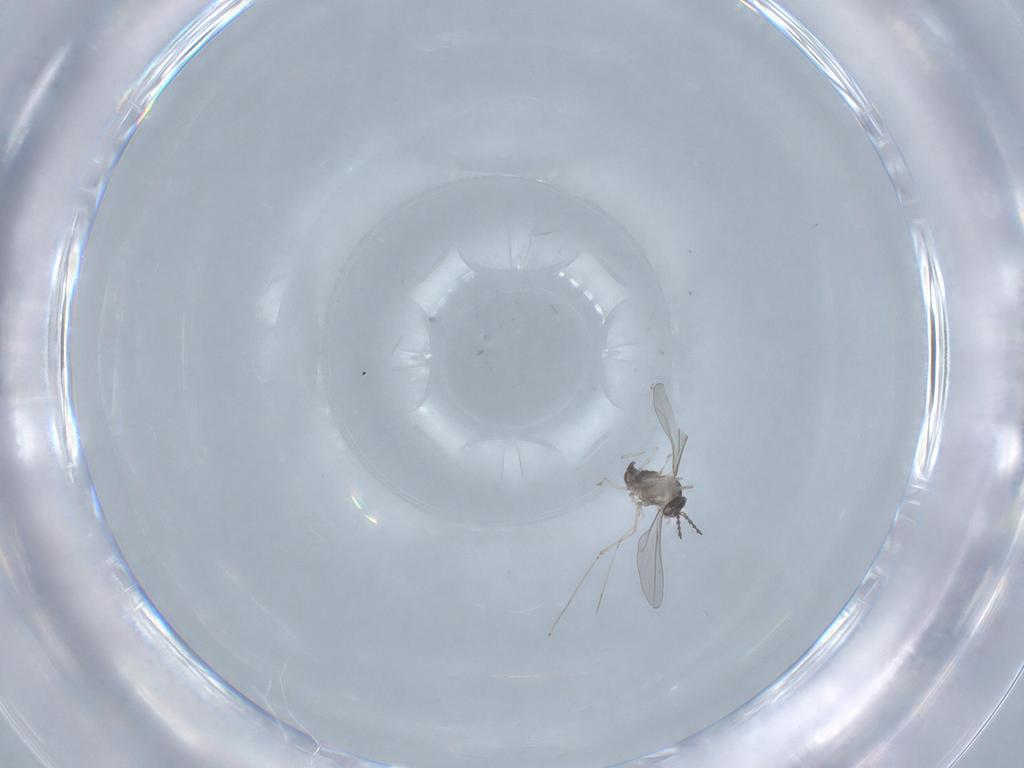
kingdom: Animalia
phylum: Arthropoda
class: Insecta
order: Diptera
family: Cecidomyiidae
